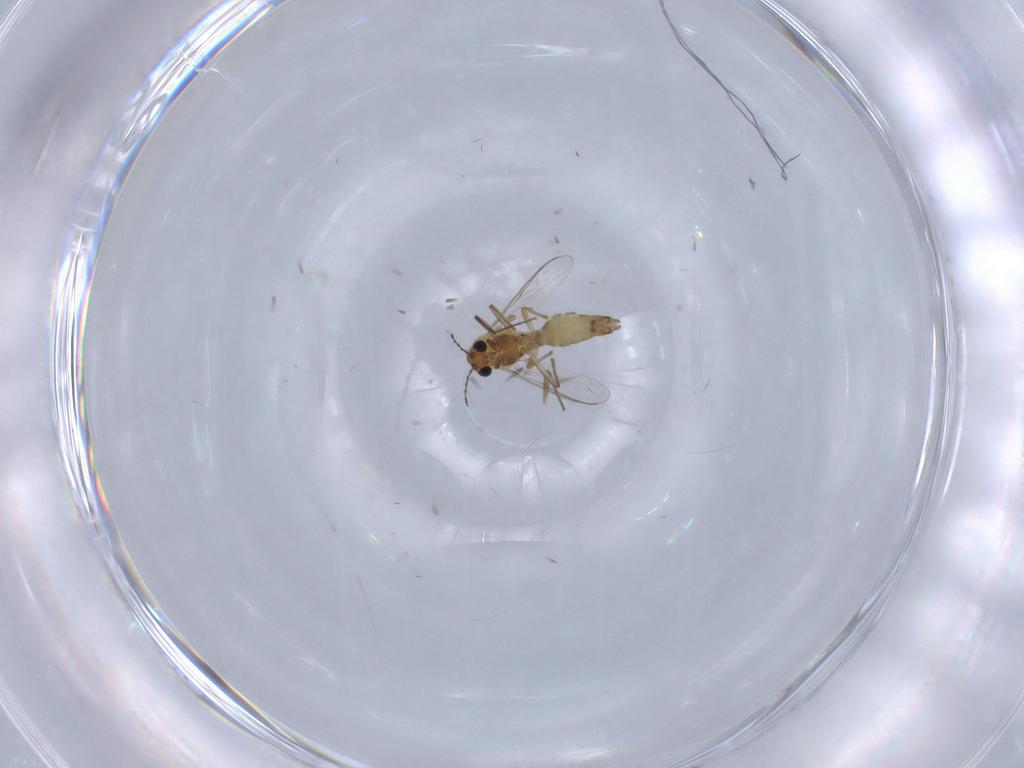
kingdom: Animalia
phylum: Arthropoda
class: Insecta
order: Diptera
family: Chironomidae
